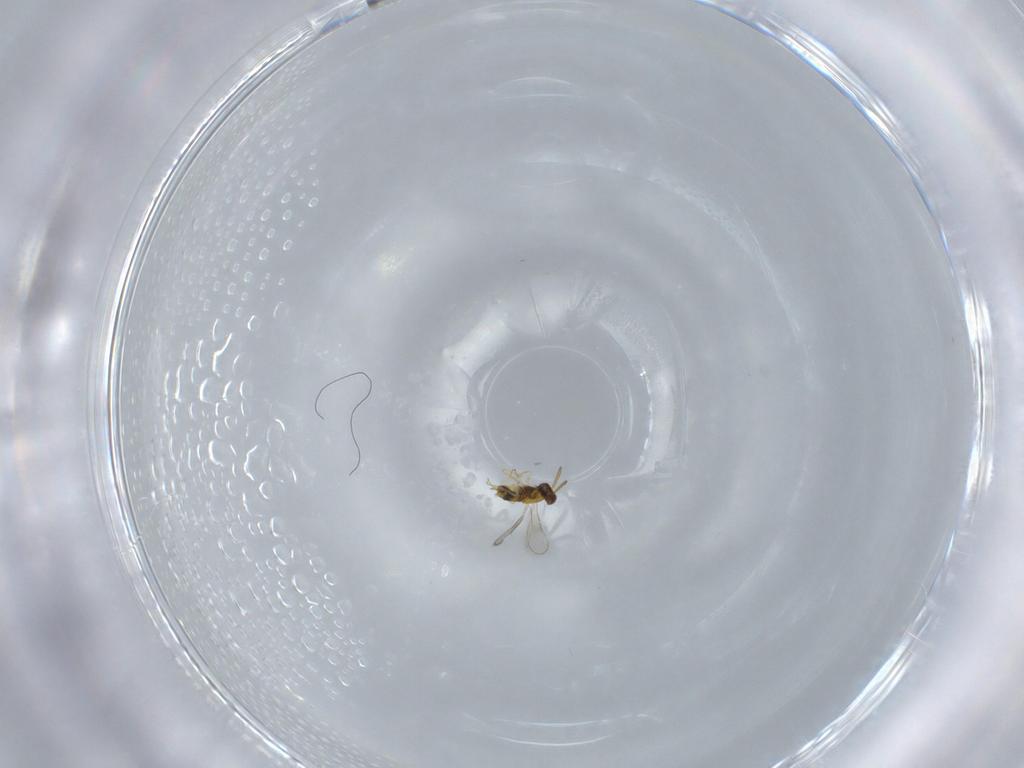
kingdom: Animalia
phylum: Arthropoda
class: Insecta
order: Hymenoptera
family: Aphelinidae
